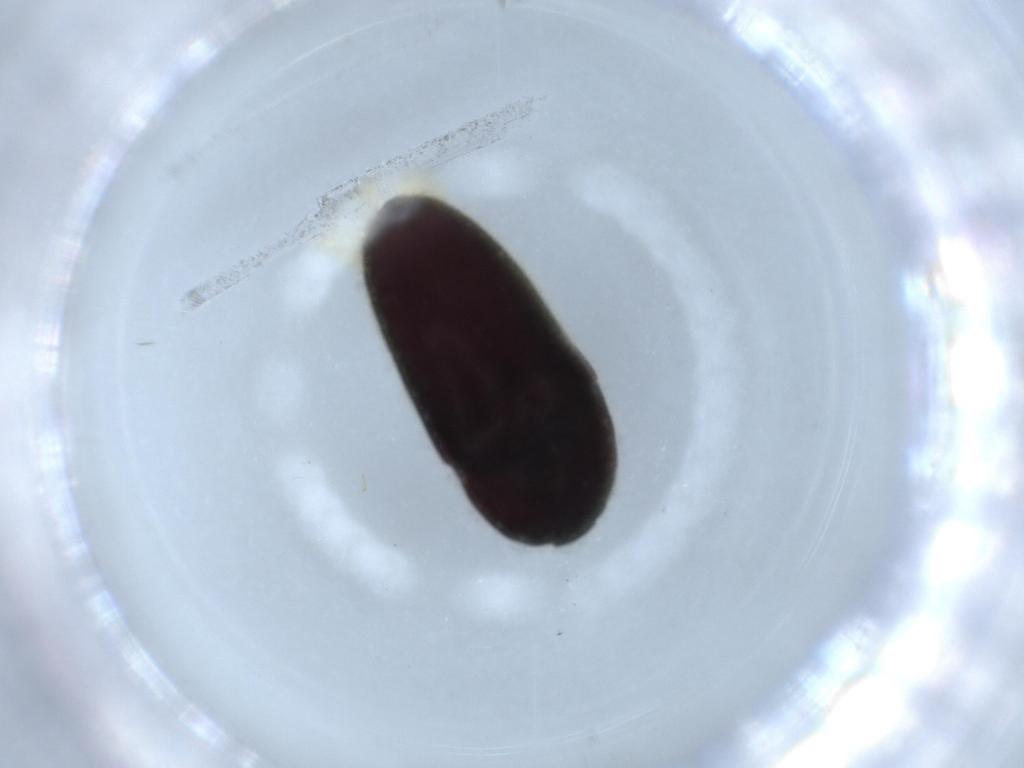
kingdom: Animalia
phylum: Arthropoda
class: Insecta
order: Coleoptera
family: Throscidae
